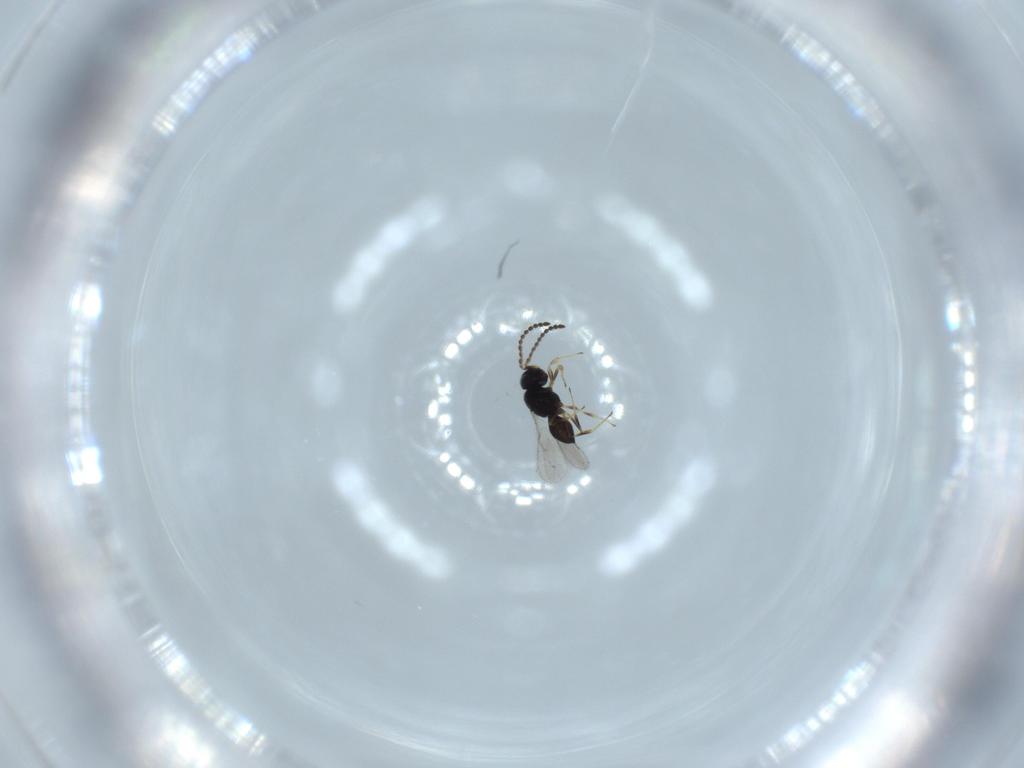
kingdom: Animalia
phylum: Arthropoda
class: Insecta
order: Hymenoptera
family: Scelionidae
